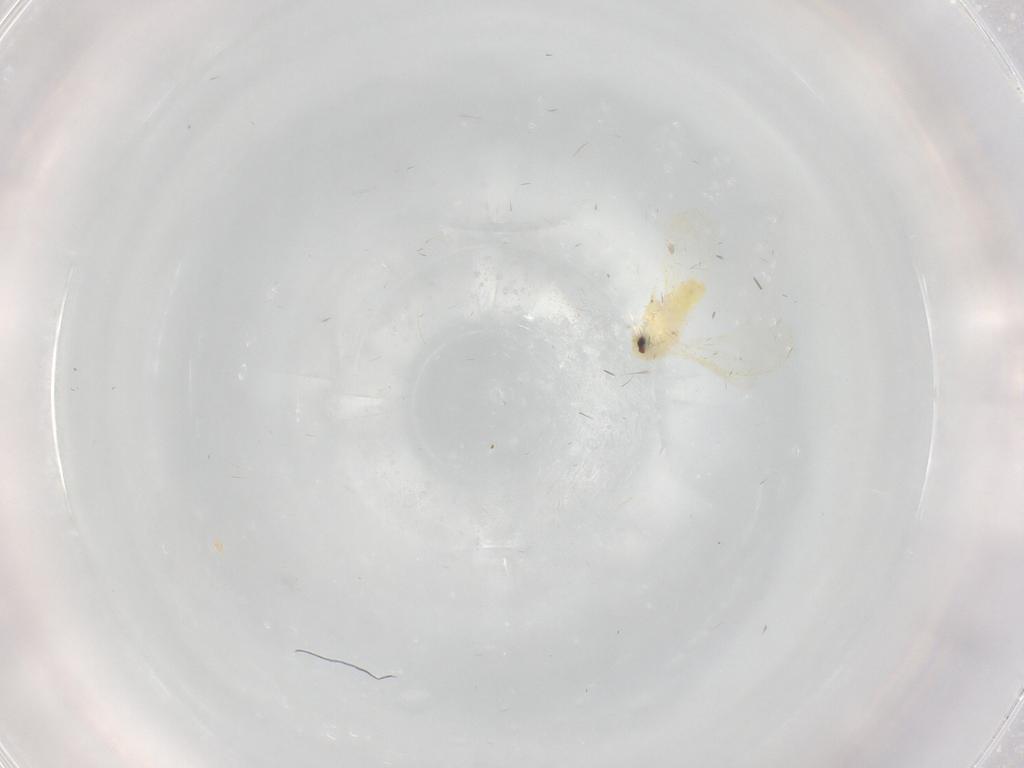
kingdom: Animalia
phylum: Arthropoda
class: Insecta
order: Hemiptera
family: Aleyrodidae
